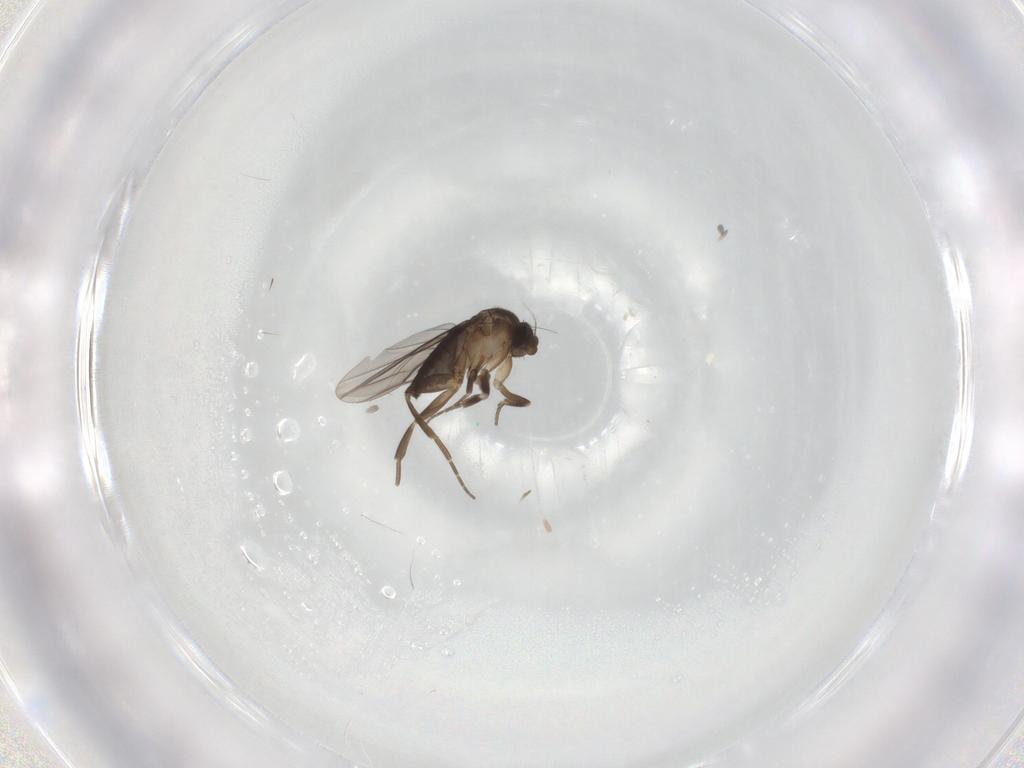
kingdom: Animalia
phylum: Arthropoda
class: Insecta
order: Diptera
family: Phoridae
